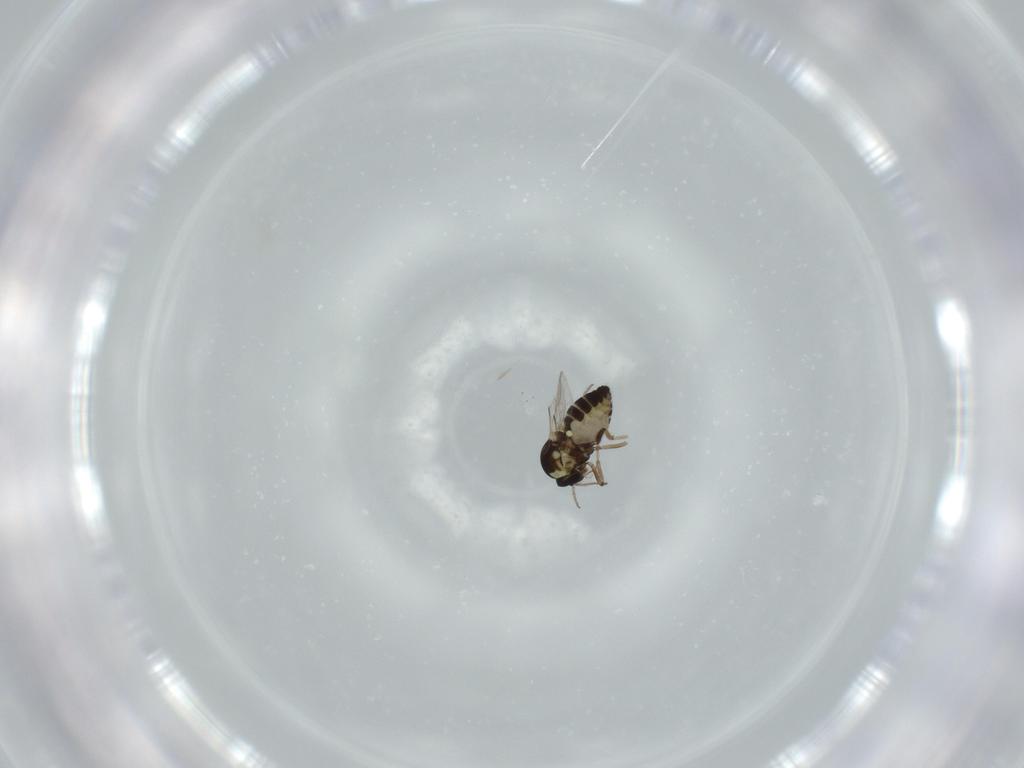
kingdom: Animalia
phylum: Arthropoda
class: Insecta
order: Diptera
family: Ceratopogonidae
